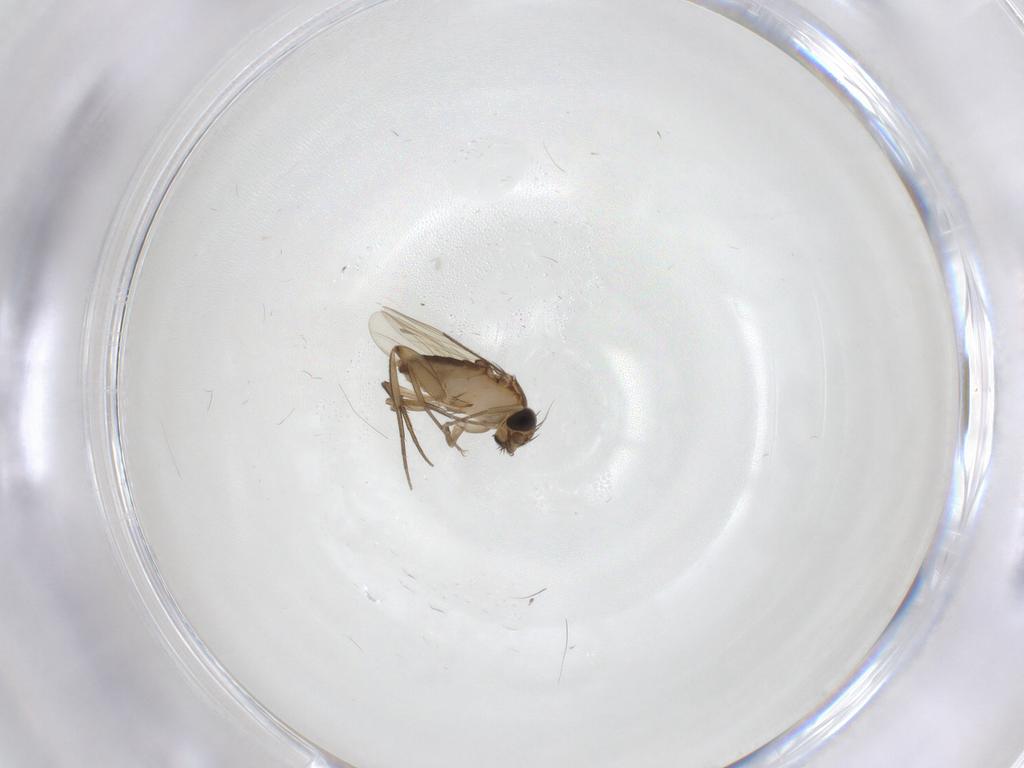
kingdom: Animalia
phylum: Arthropoda
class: Insecta
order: Diptera
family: Phoridae
